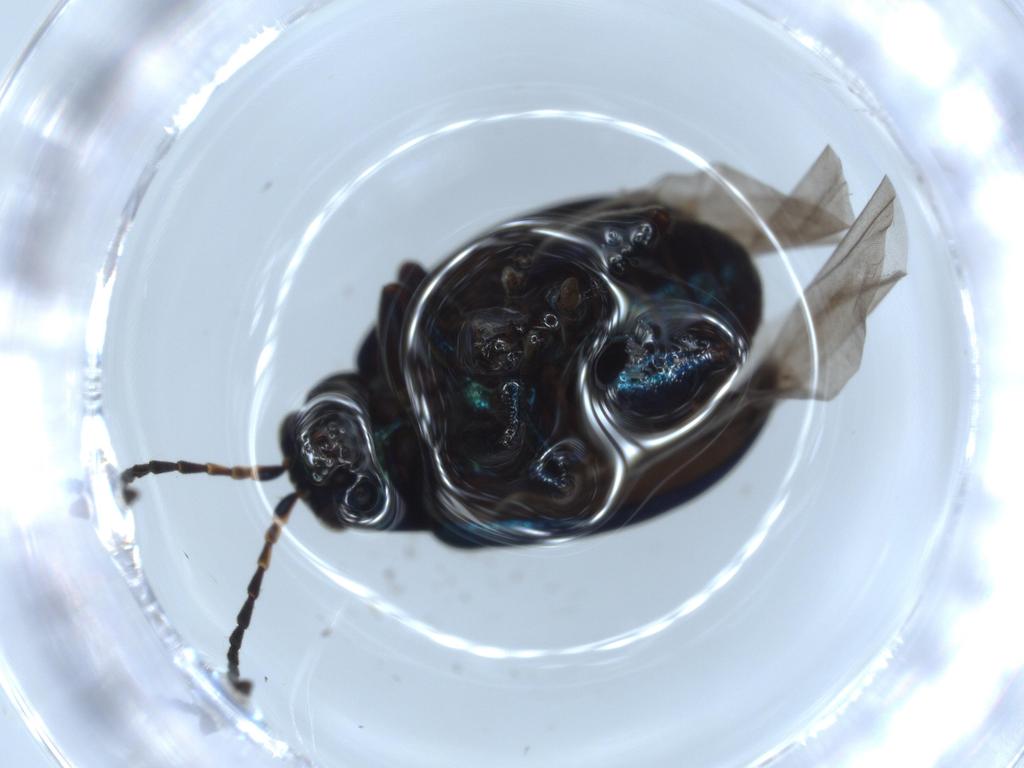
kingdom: Animalia
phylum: Arthropoda
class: Insecta
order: Coleoptera
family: Chrysomelidae
